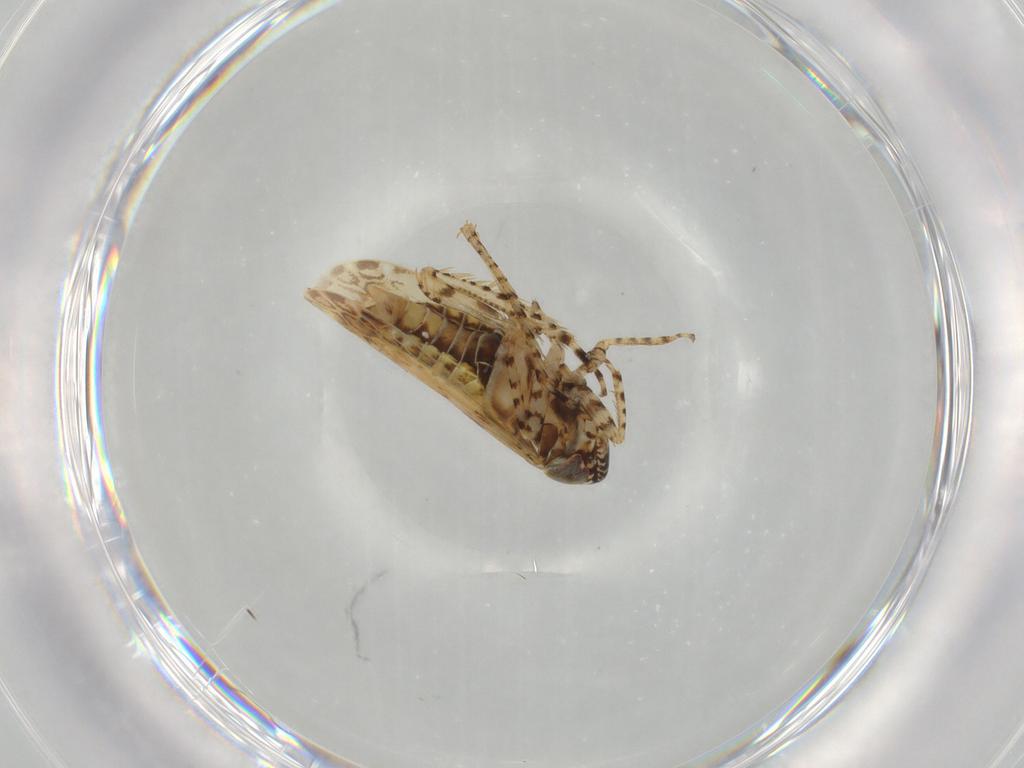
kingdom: Animalia
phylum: Arthropoda
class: Insecta
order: Hemiptera
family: Cicadellidae
